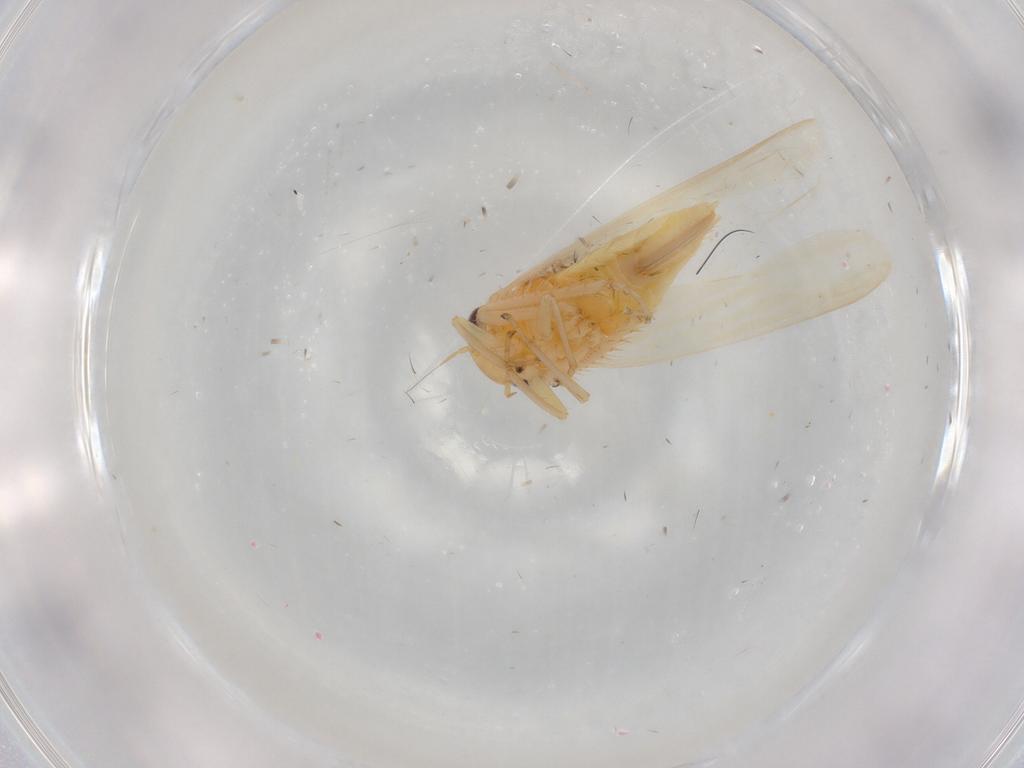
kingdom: Animalia
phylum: Arthropoda
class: Insecta
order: Hemiptera
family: Cicadellidae
